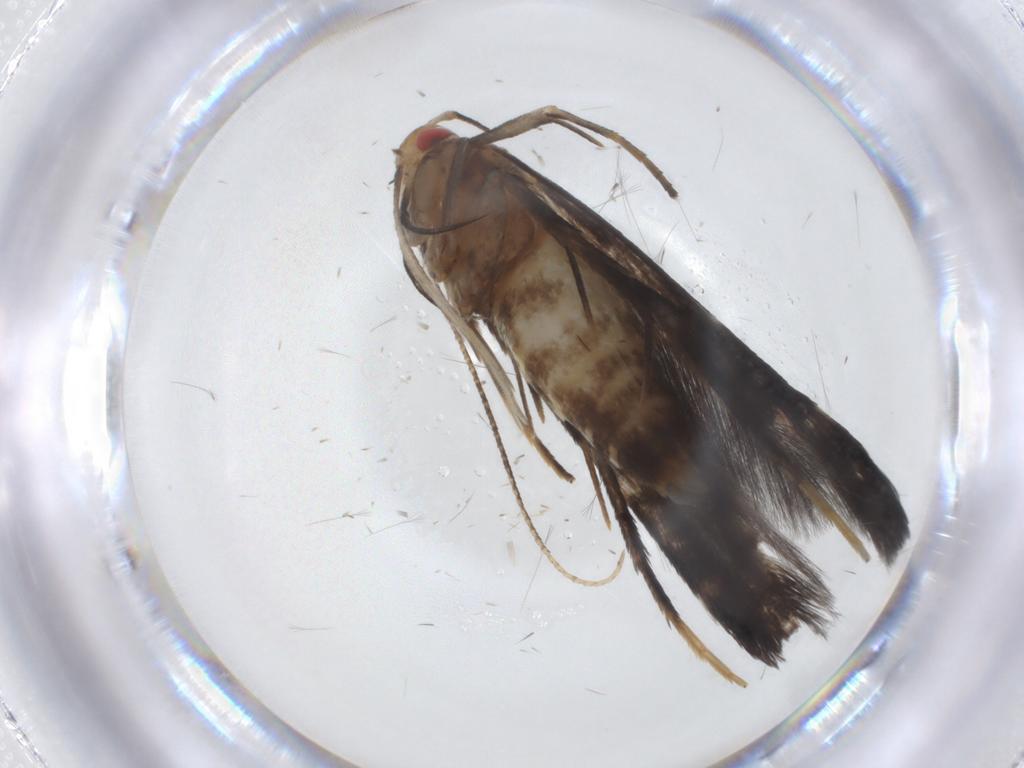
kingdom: Animalia
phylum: Arthropoda
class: Insecta
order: Lepidoptera
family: Cosmopterigidae
